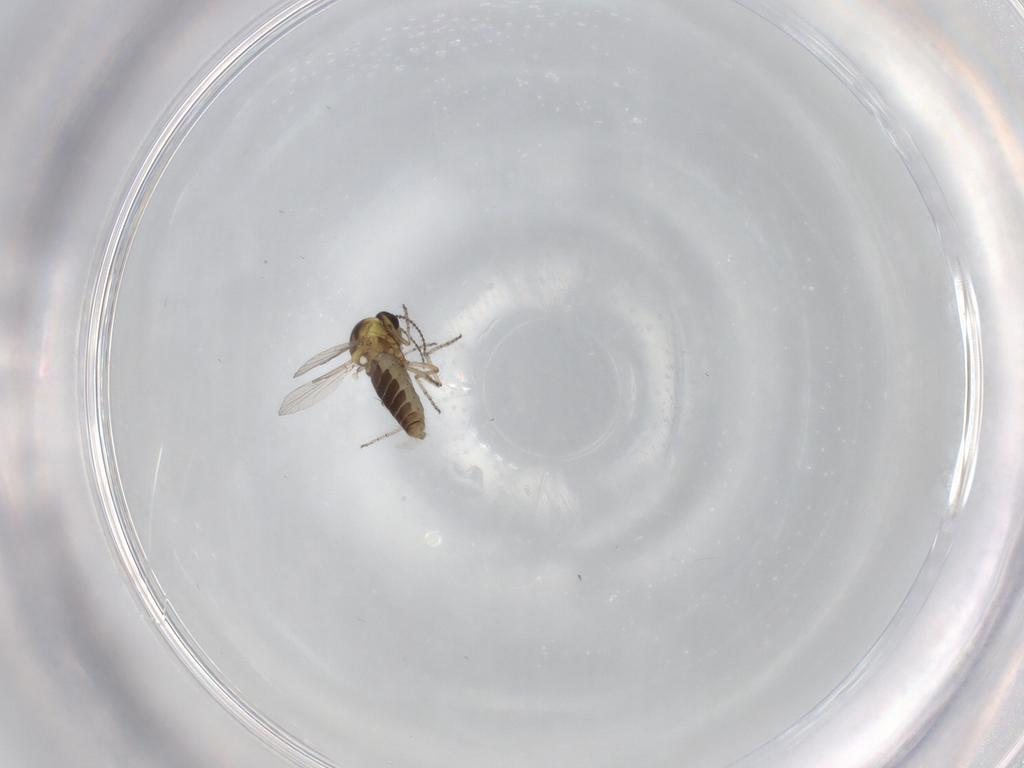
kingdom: Animalia
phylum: Arthropoda
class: Insecta
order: Diptera
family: Ceratopogonidae
